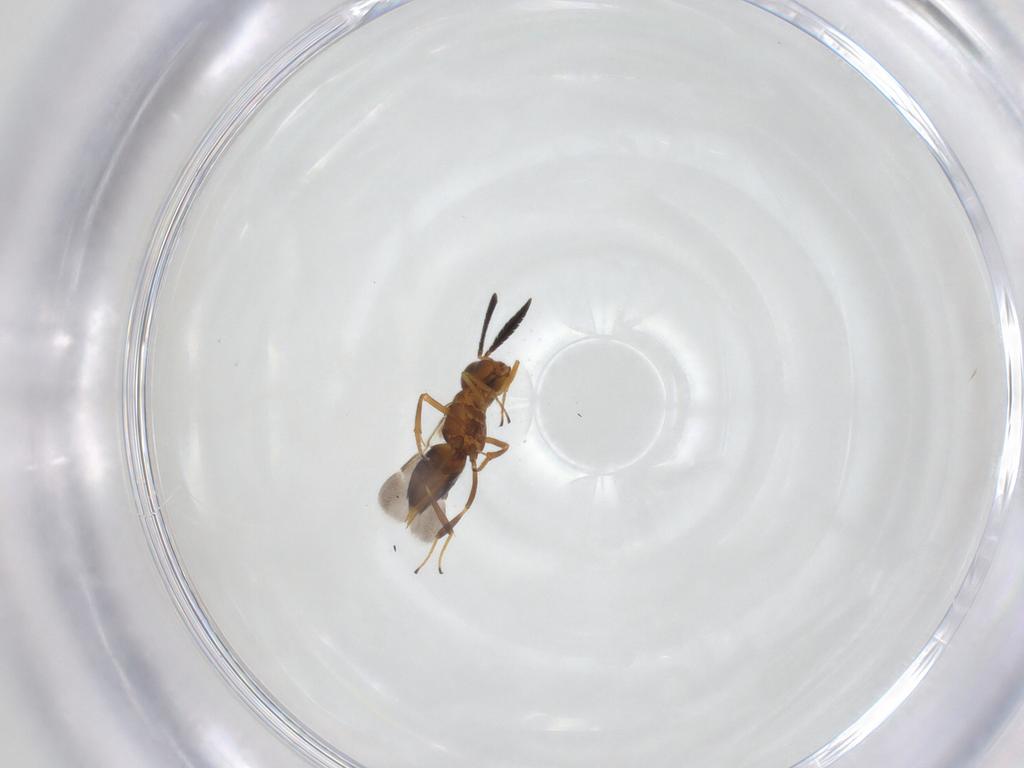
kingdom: Animalia
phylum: Arthropoda
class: Insecta
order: Hymenoptera
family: Encyrtidae
